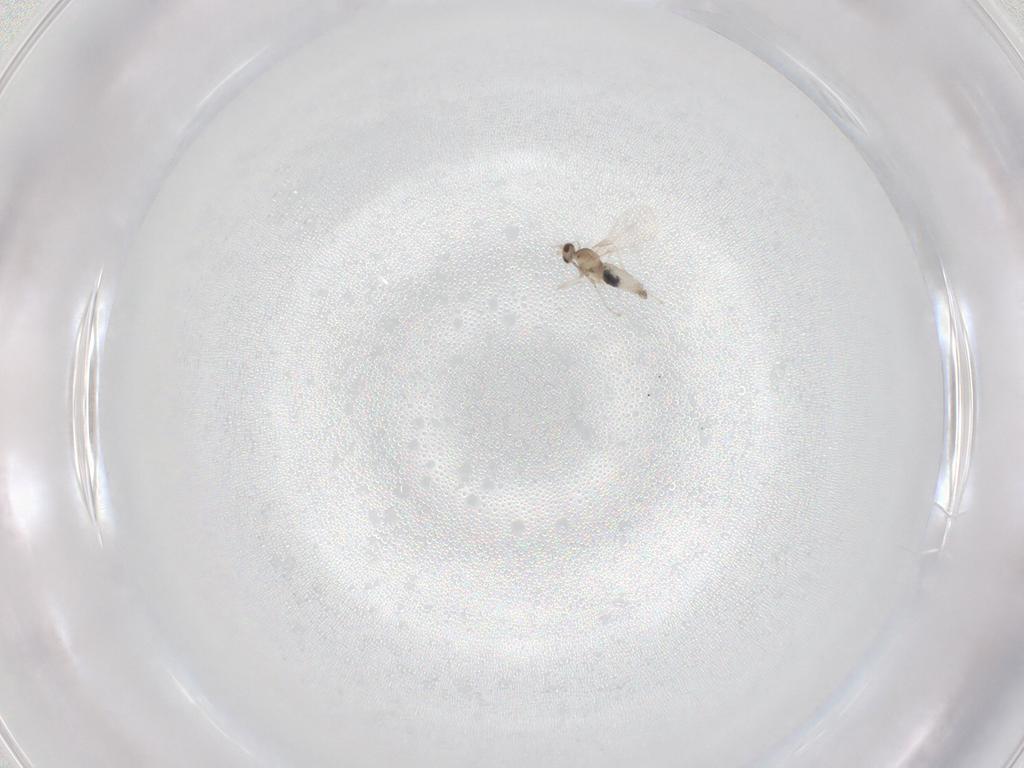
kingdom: Animalia
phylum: Arthropoda
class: Insecta
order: Diptera
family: Cecidomyiidae
